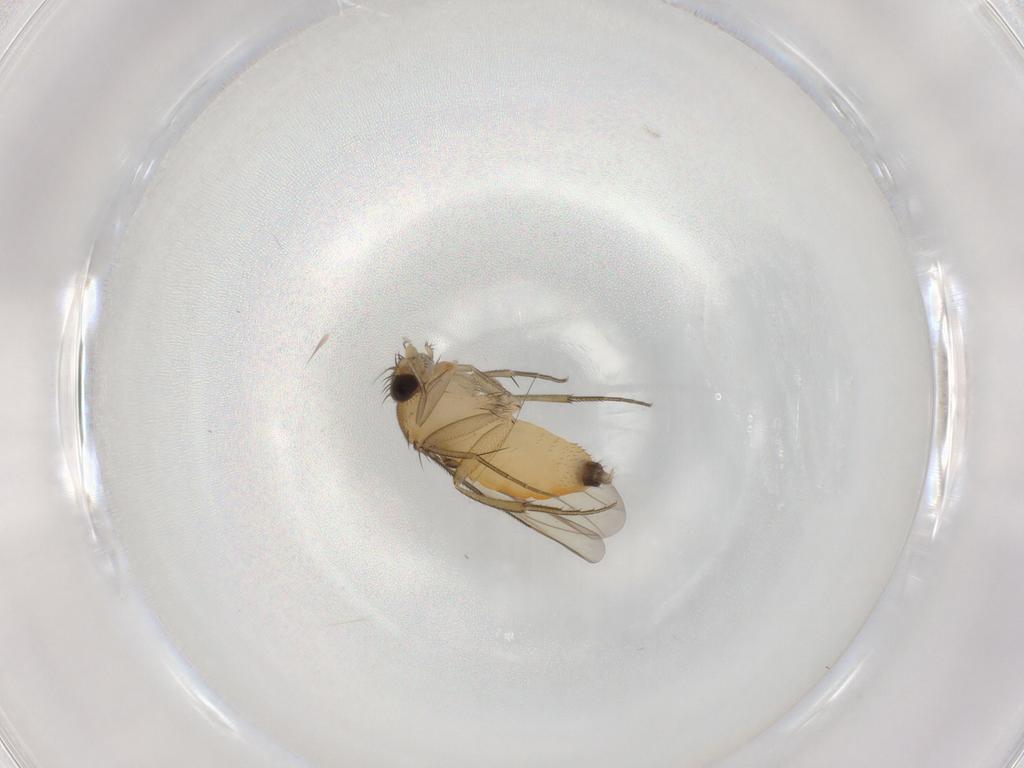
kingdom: Animalia
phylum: Arthropoda
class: Insecta
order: Diptera
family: Phoridae
